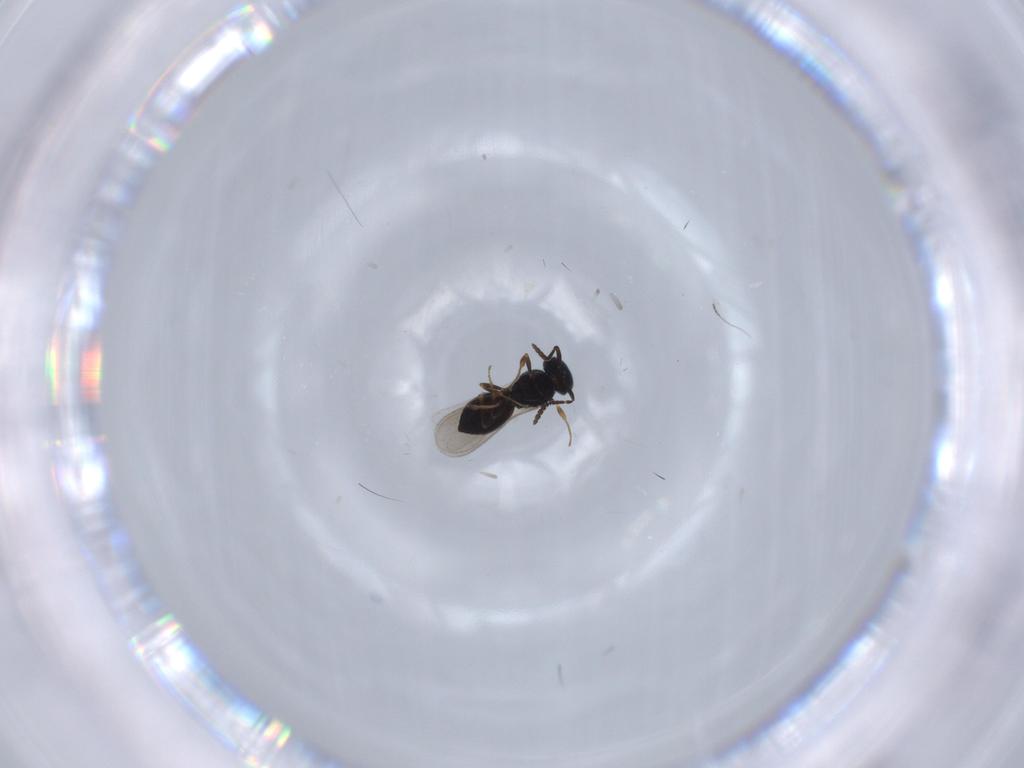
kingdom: Animalia
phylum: Arthropoda
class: Insecta
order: Hymenoptera
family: Scelionidae
